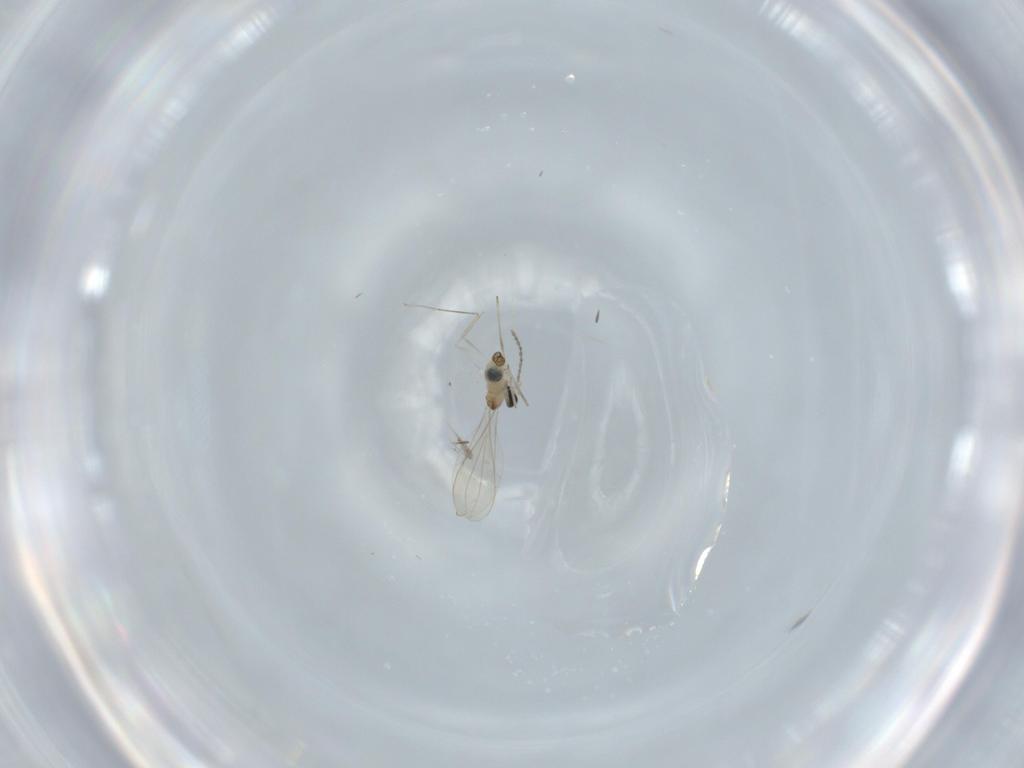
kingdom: Animalia
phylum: Arthropoda
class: Insecta
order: Diptera
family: Cecidomyiidae
